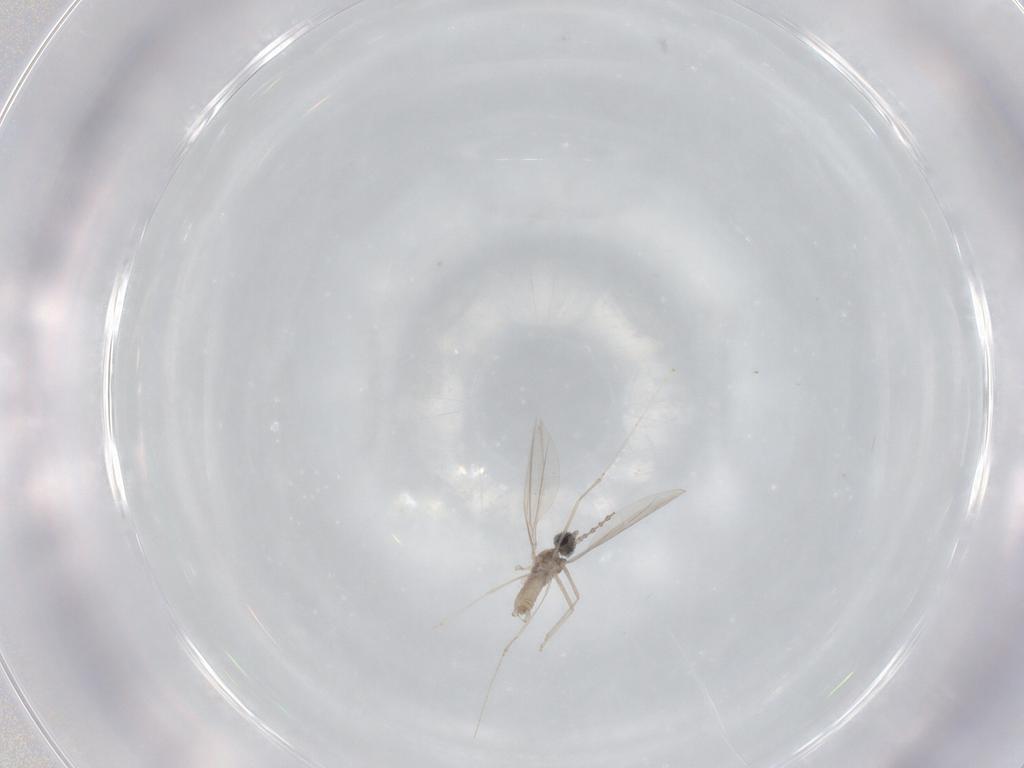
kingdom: Animalia
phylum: Arthropoda
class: Insecta
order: Diptera
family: Cecidomyiidae
